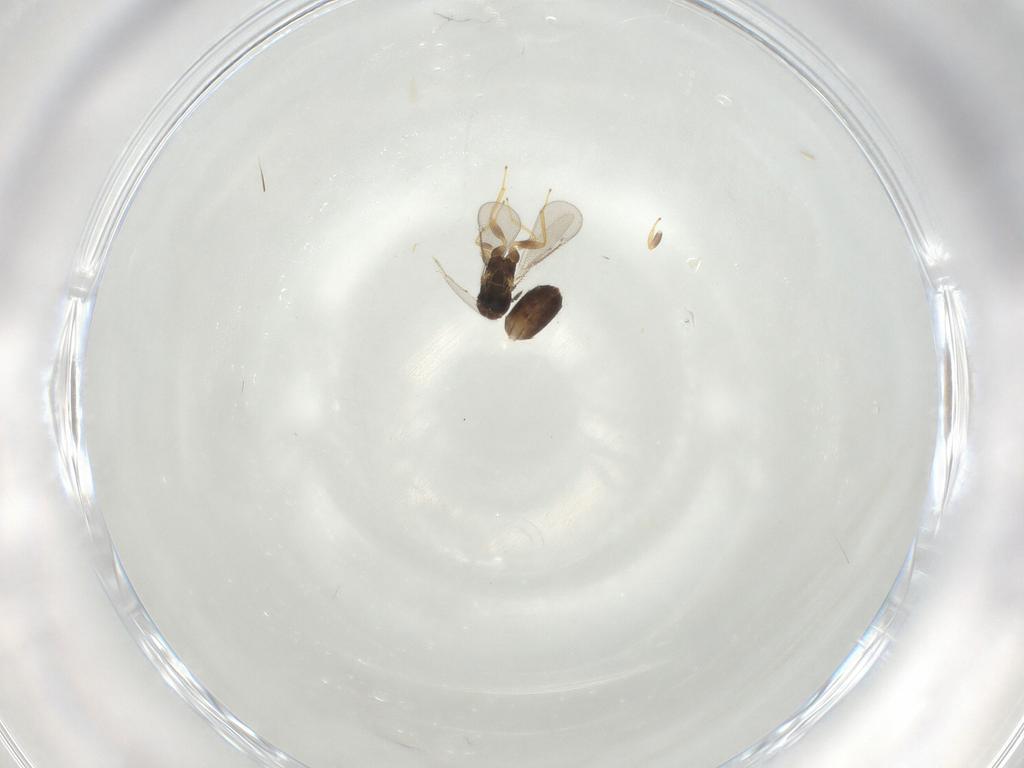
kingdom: Animalia
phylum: Arthropoda
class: Insecta
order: Hymenoptera
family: Eulophidae
